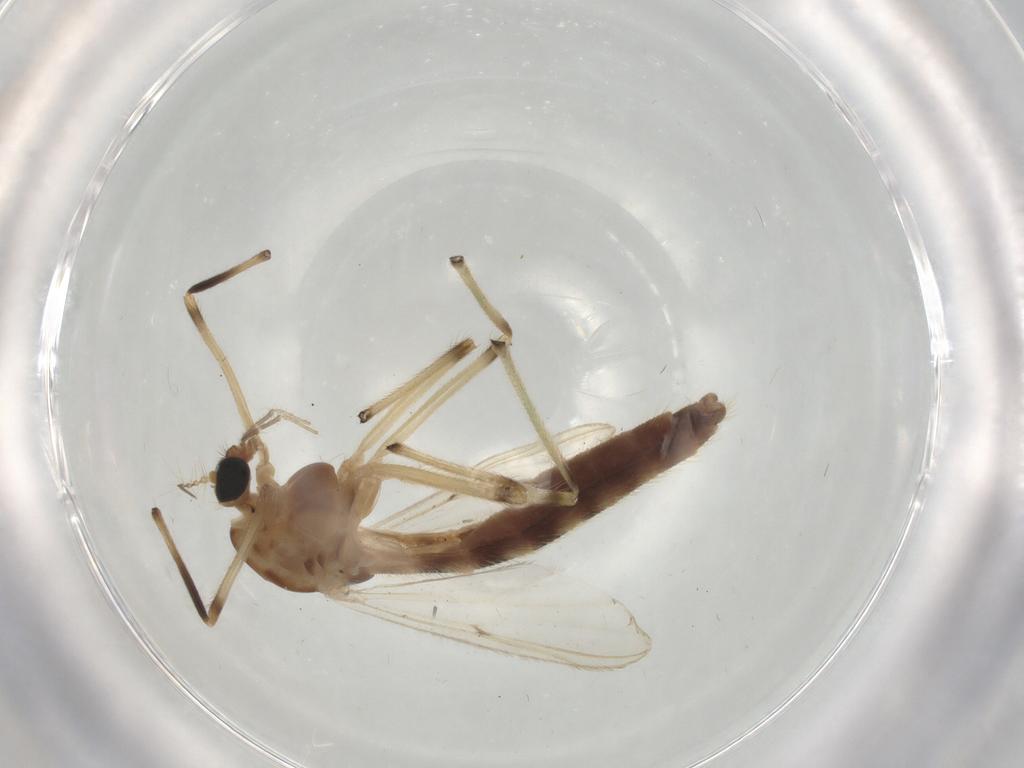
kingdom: Animalia
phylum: Arthropoda
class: Insecta
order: Diptera
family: Chironomidae
